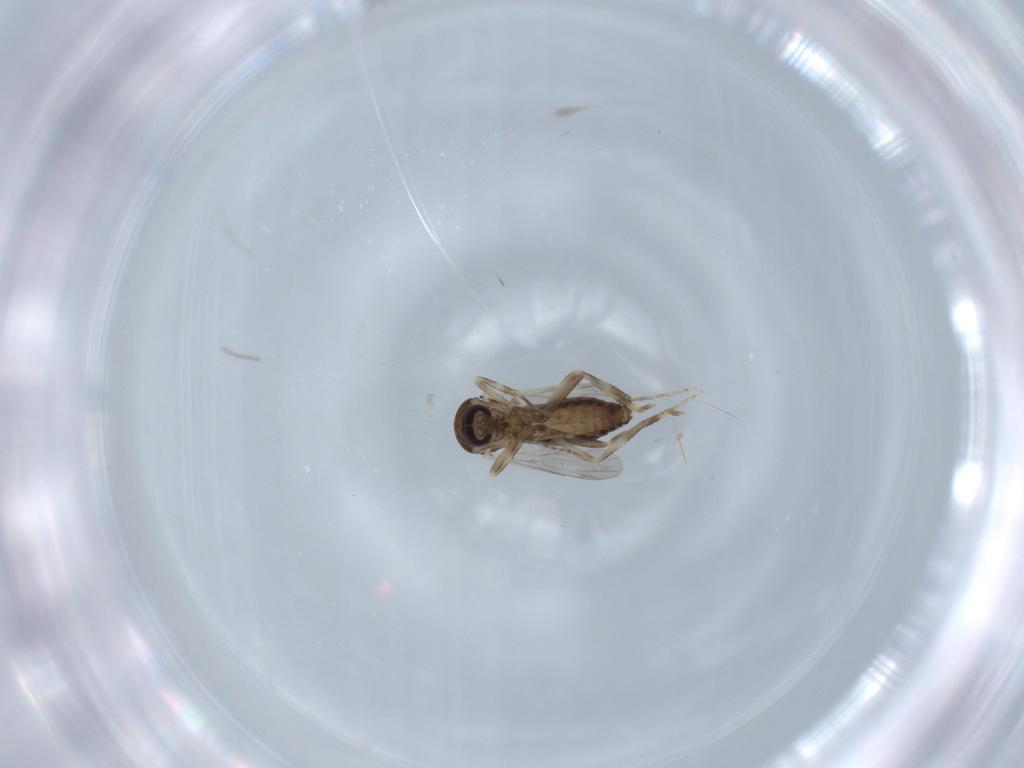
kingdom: Animalia
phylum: Arthropoda
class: Insecta
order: Diptera
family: Ceratopogonidae
